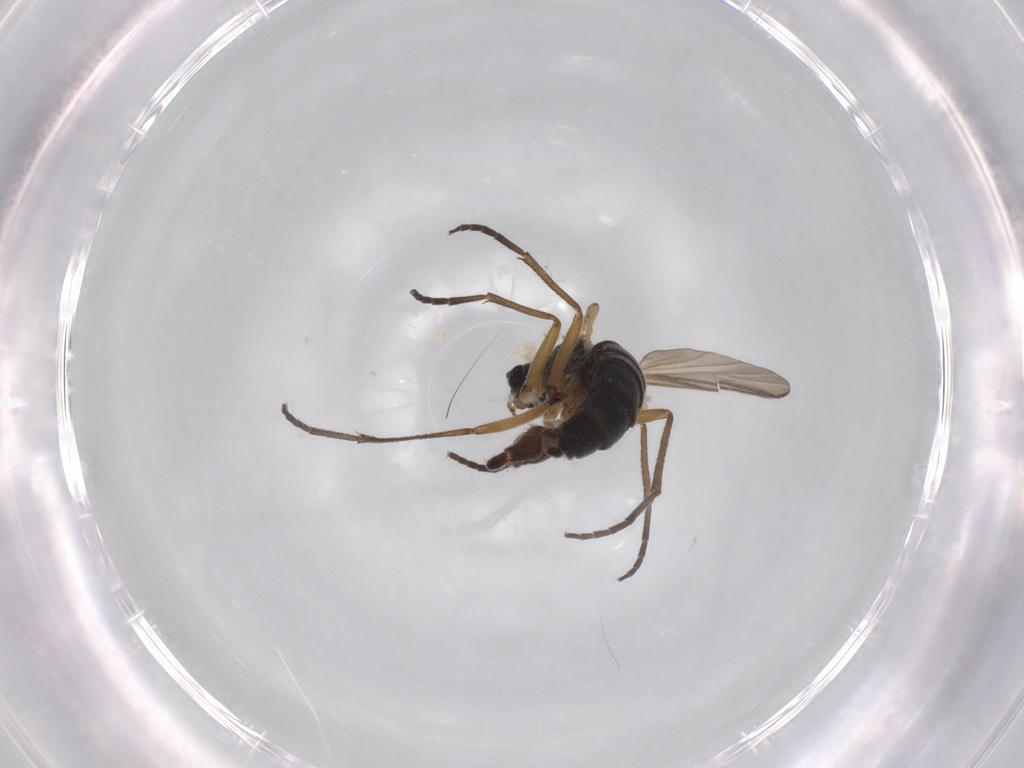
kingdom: Animalia
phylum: Arthropoda
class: Insecta
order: Diptera
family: Sciaridae
